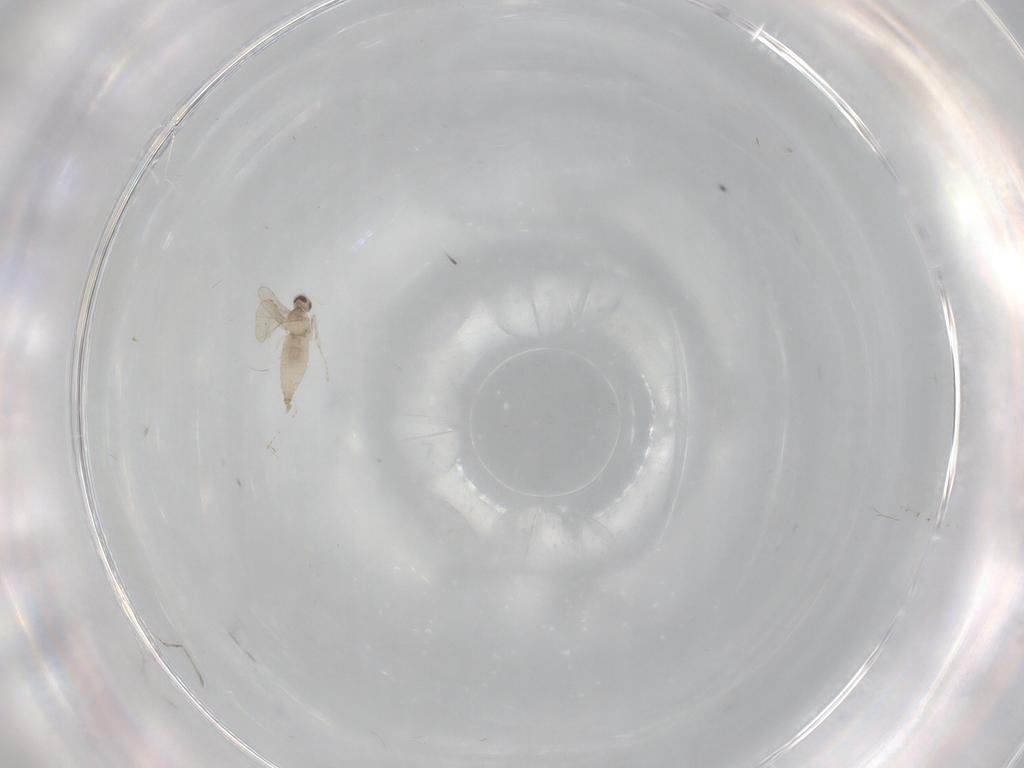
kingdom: Animalia
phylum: Arthropoda
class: Insecta
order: Diptera
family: Cecidomyiidae
